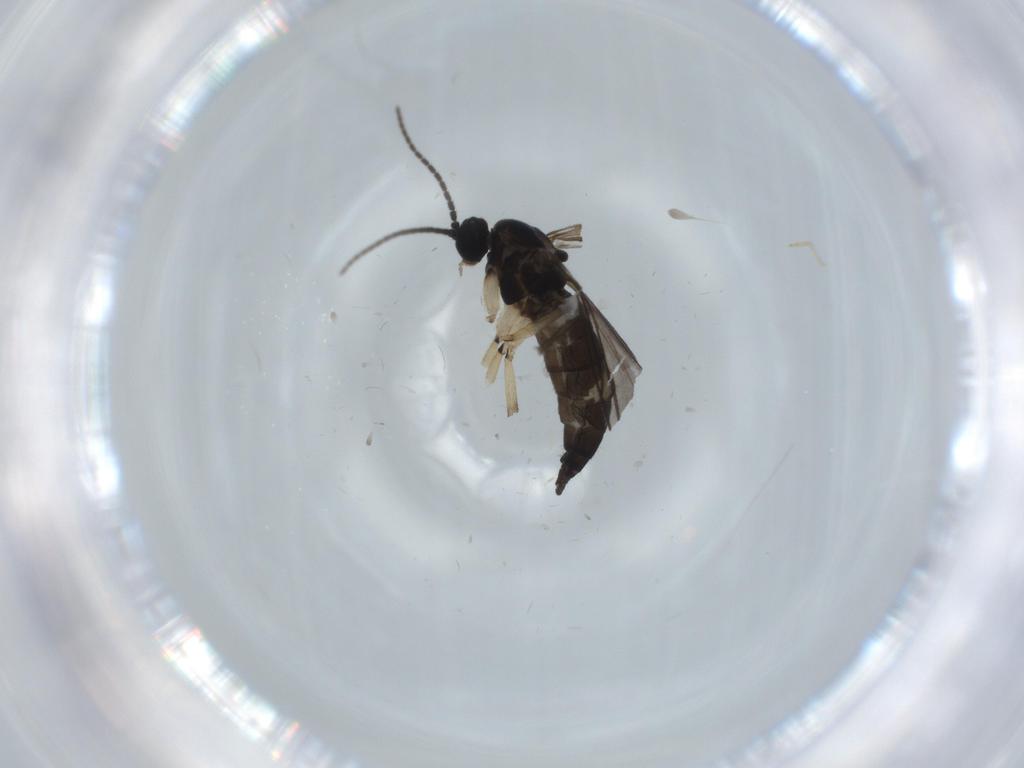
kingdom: Animalia
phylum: Arthropoda
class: Insecta
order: Diptera
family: Sciaridae
